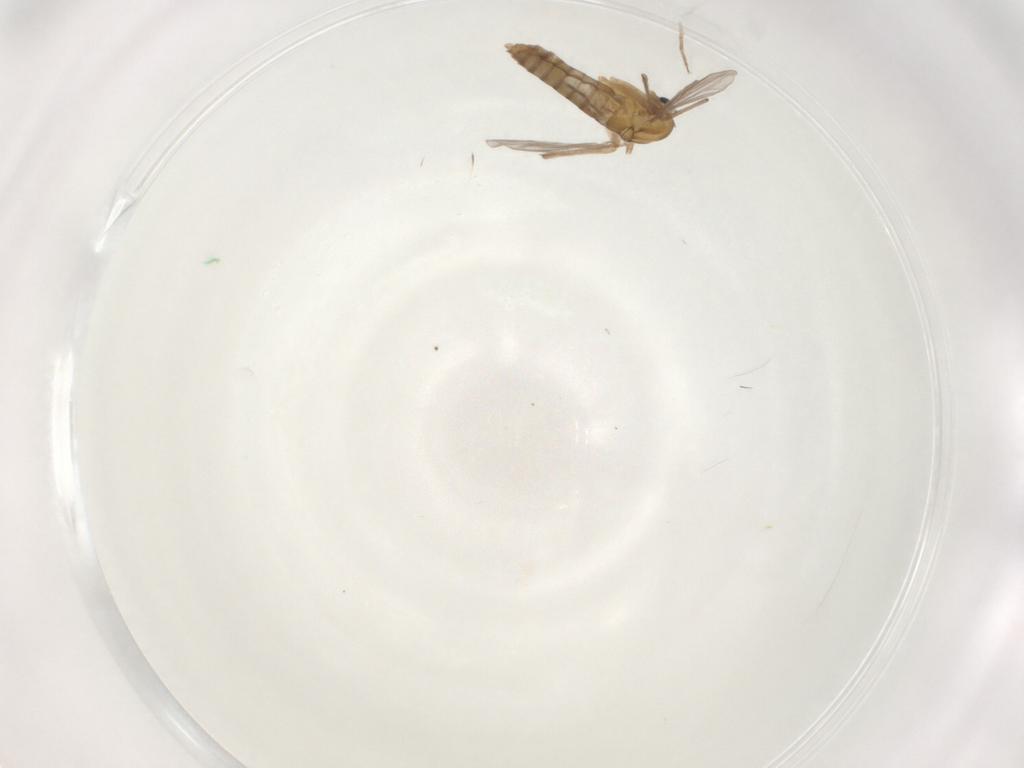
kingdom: Animalia
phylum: Arthropoda
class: Insecta
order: Diptera
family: Chironomidae
